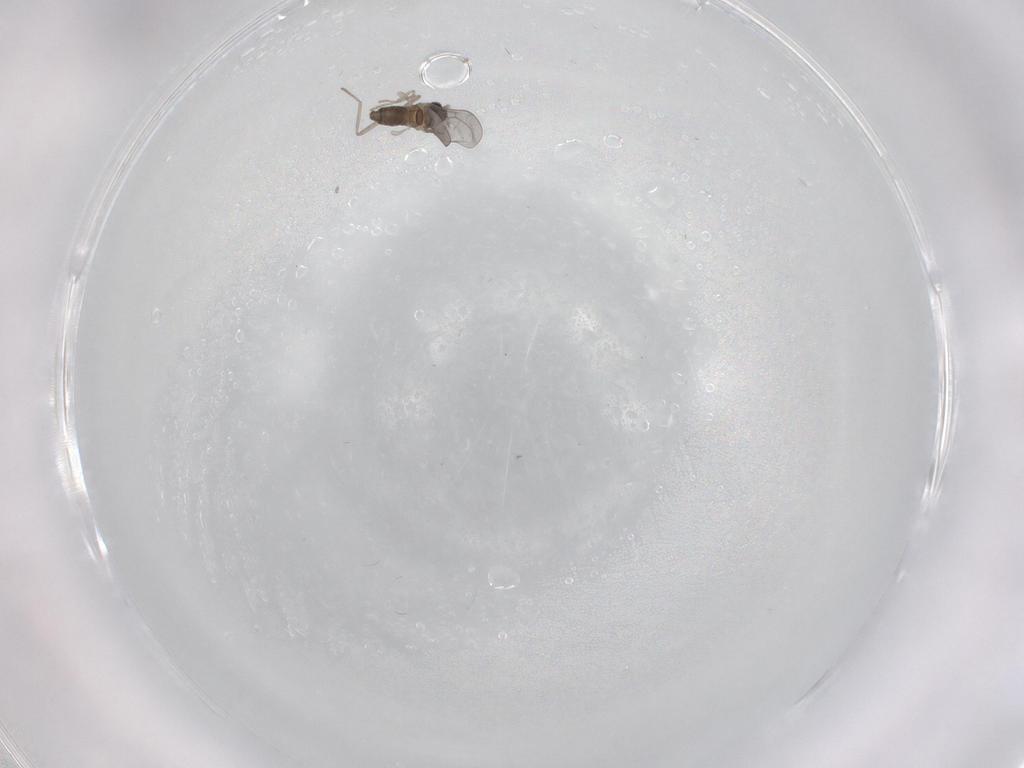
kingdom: Animalia
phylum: Arthropoda
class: Insecta
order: Diptera
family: Cecidomyiidae
